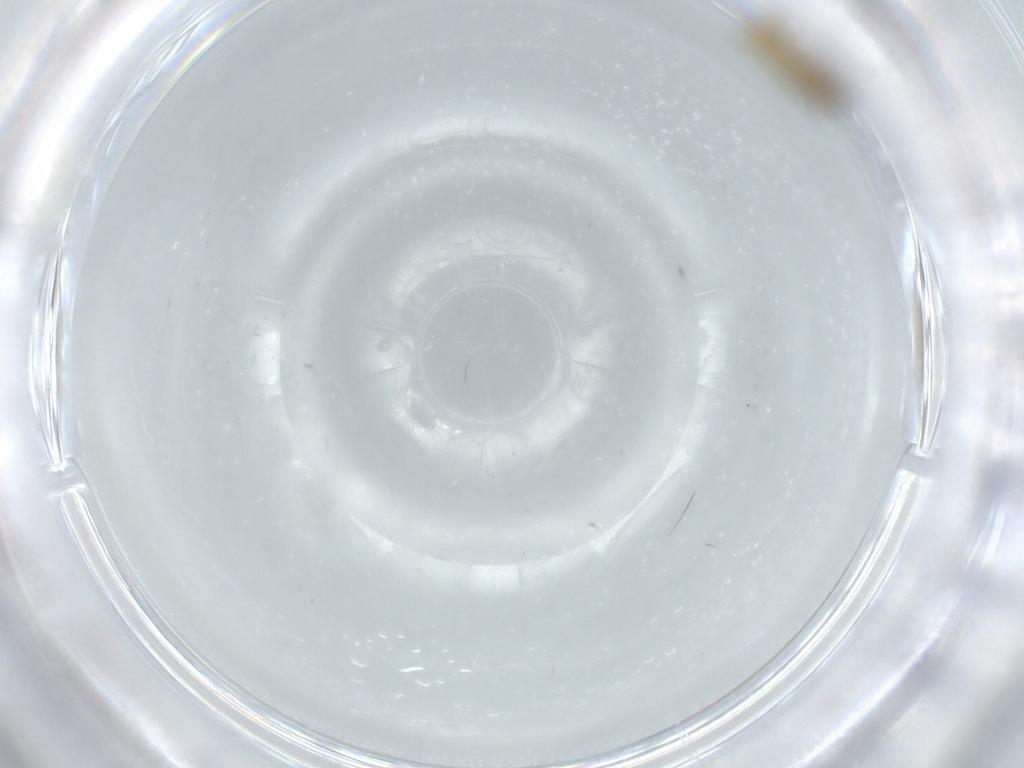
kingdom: Animalia
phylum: Arthropoda
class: Insecta
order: Diptera
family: Scatopsidae
